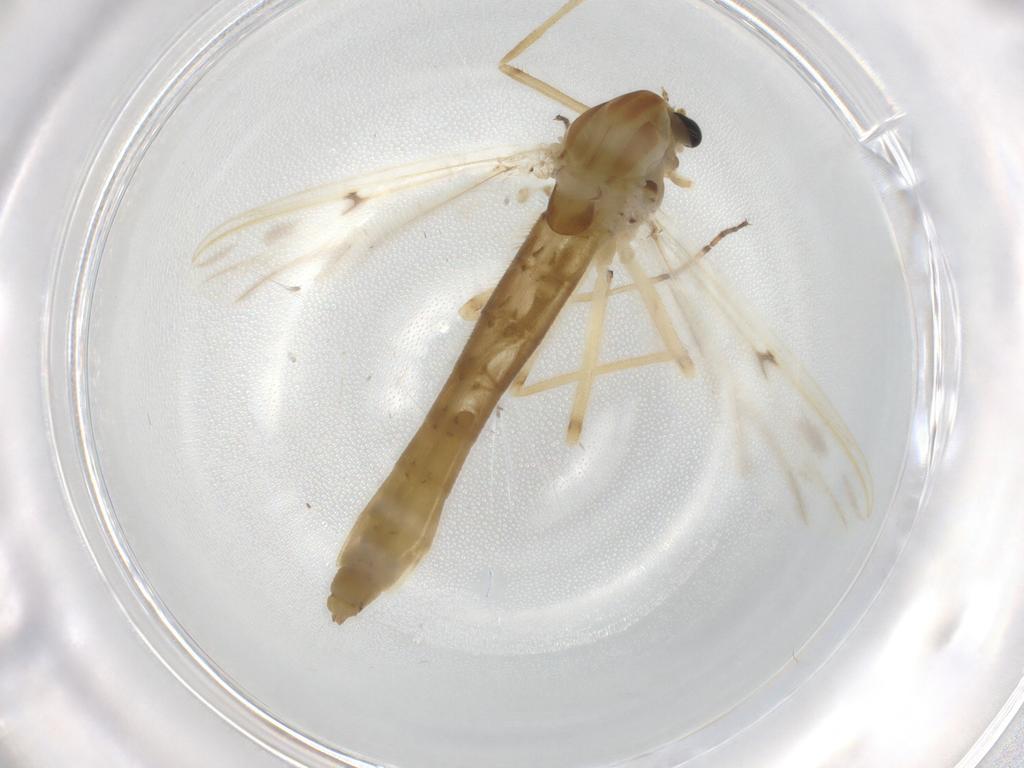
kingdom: Animalia
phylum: Arthropoda
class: Insecta
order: Diptera
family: Chironomidae
